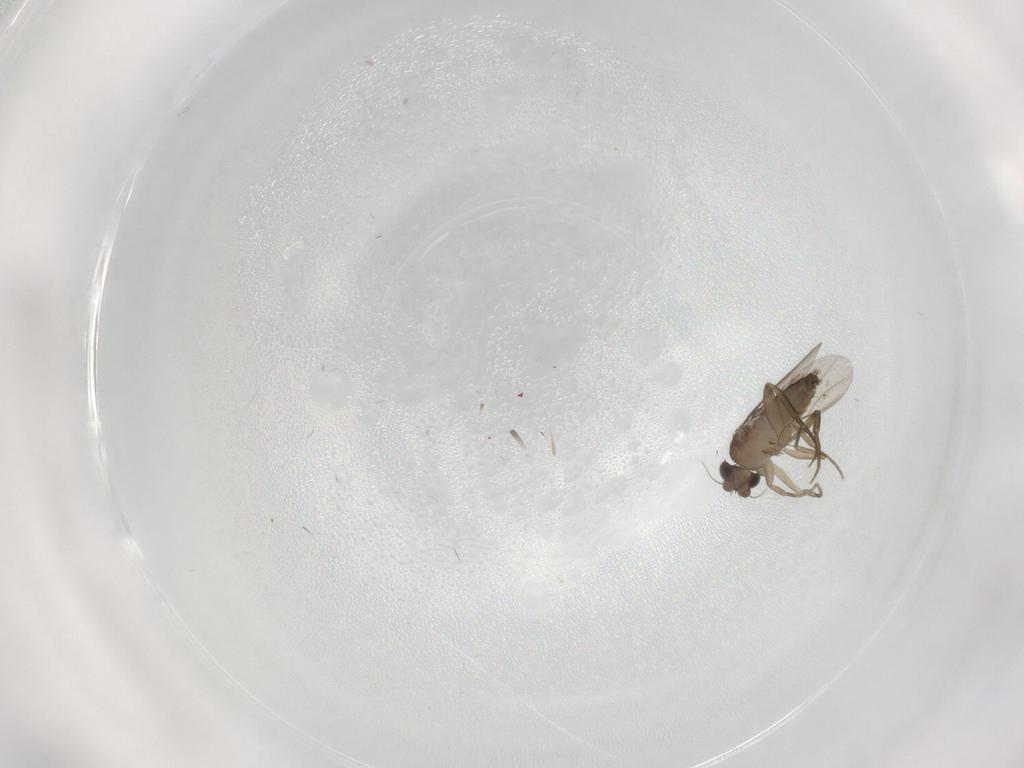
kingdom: Animalia
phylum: Arthropoda
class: Insecta
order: Diptera
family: Phoridae
